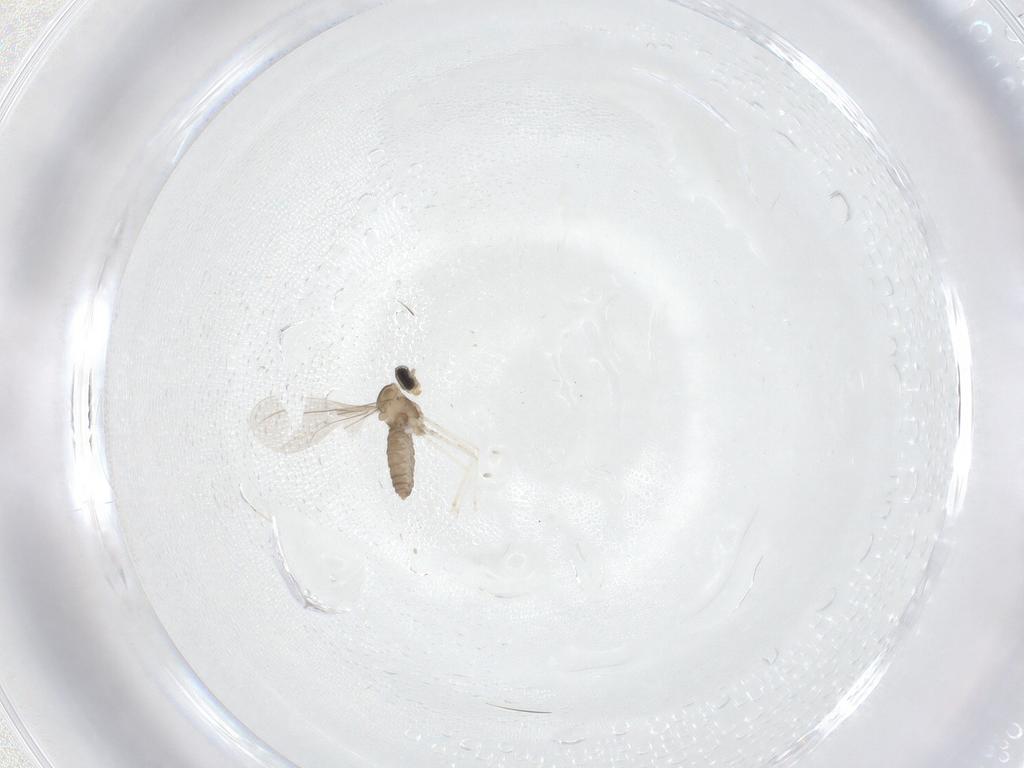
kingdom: Animalia
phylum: Arthropoda
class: Insecta
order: Diptera
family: Cecidomyiidae
